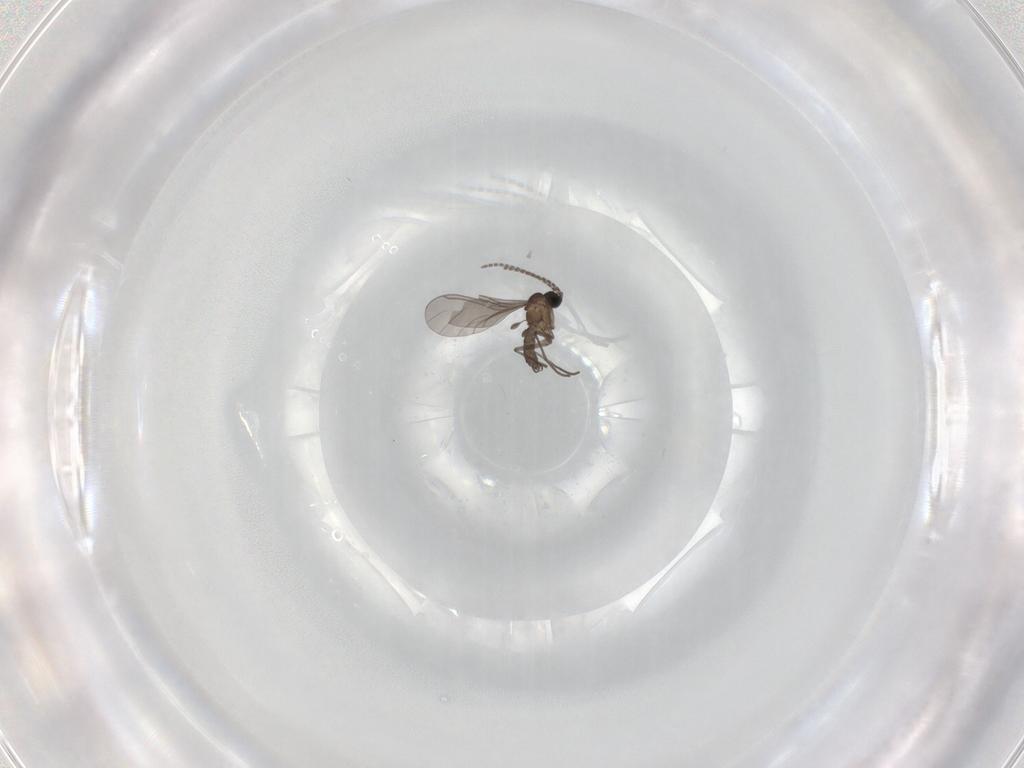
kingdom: Animalia
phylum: Arthropoda
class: Insecta
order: Diptera
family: Sciaridae
